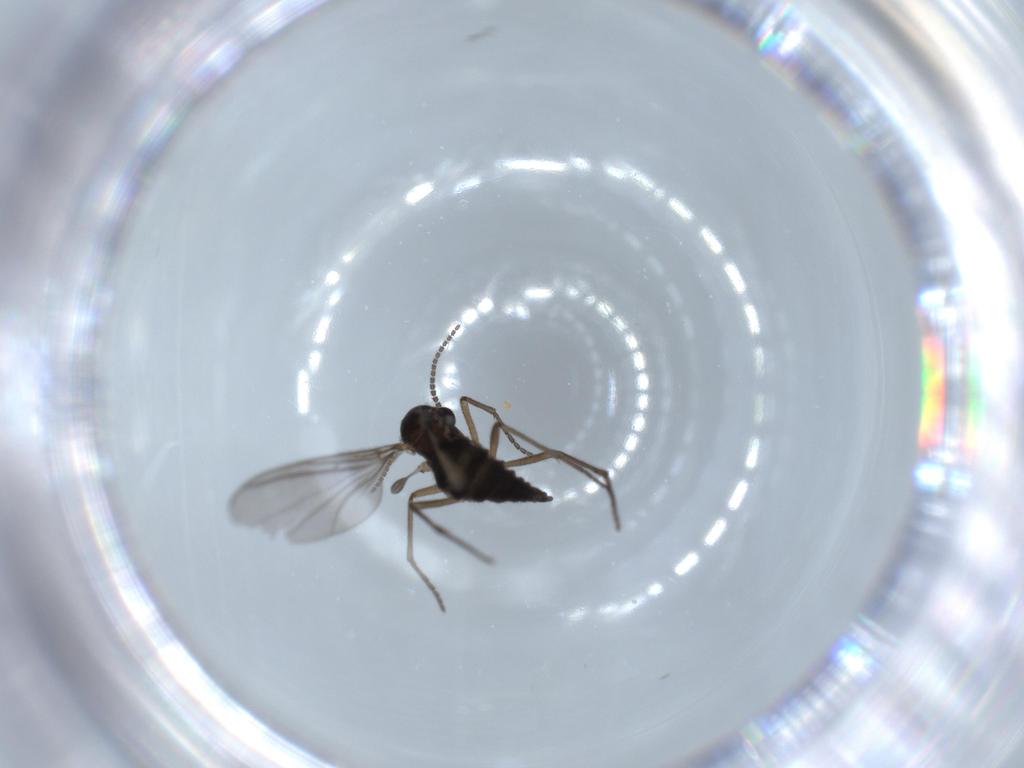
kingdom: Animalia
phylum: Arthropoda
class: Insecta
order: Diptera
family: Sciaridae
